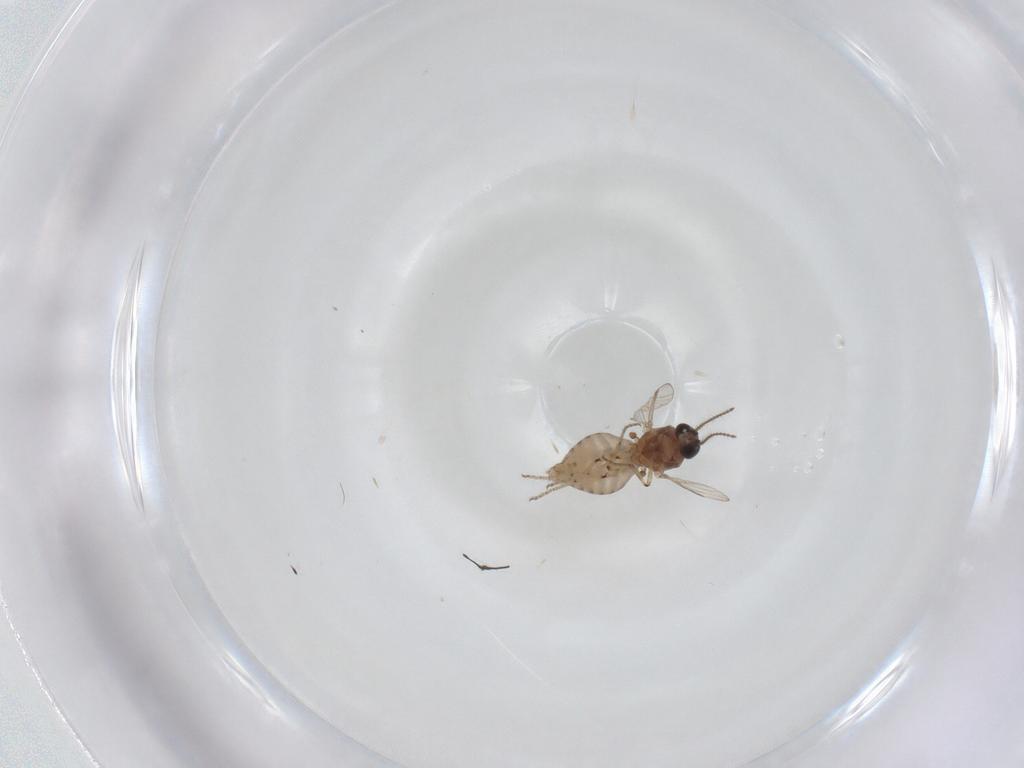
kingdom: Animalia
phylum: Arthropoda
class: Insecta
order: Diptera
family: Ceratopogonidae
